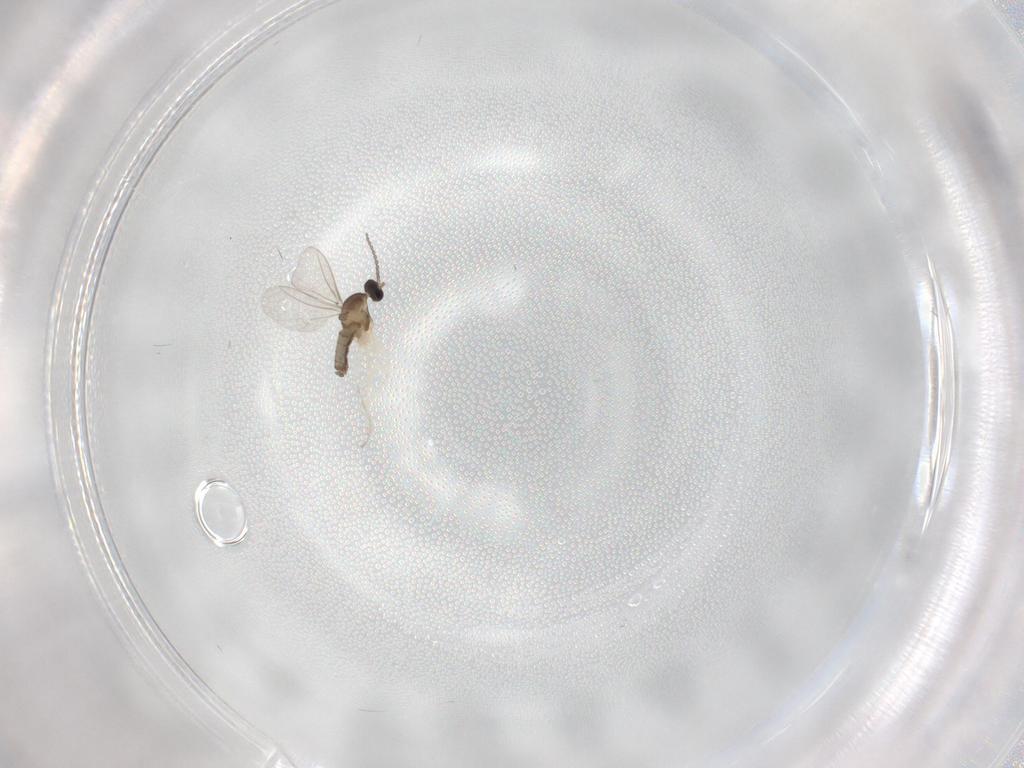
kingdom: Animalia
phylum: Arthropoda
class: Insecta
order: Diptera
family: Cecidomyiidae
